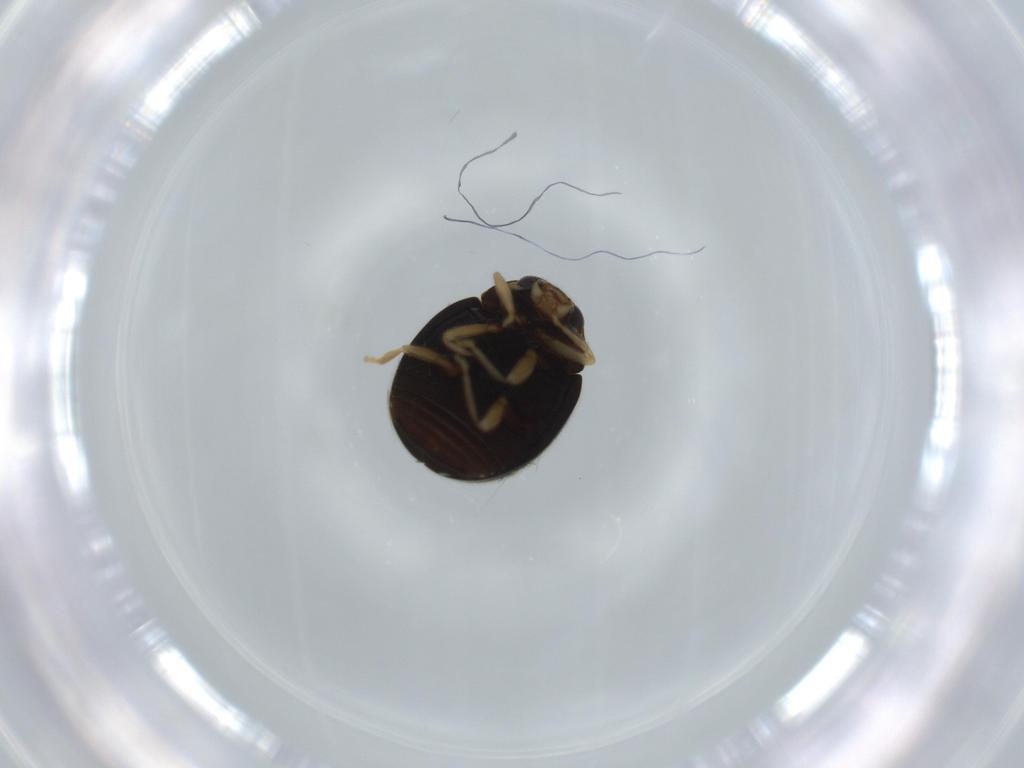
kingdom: Animalia
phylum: Arthropoda
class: Insecta
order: Coleoptera
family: Coccinellidae
